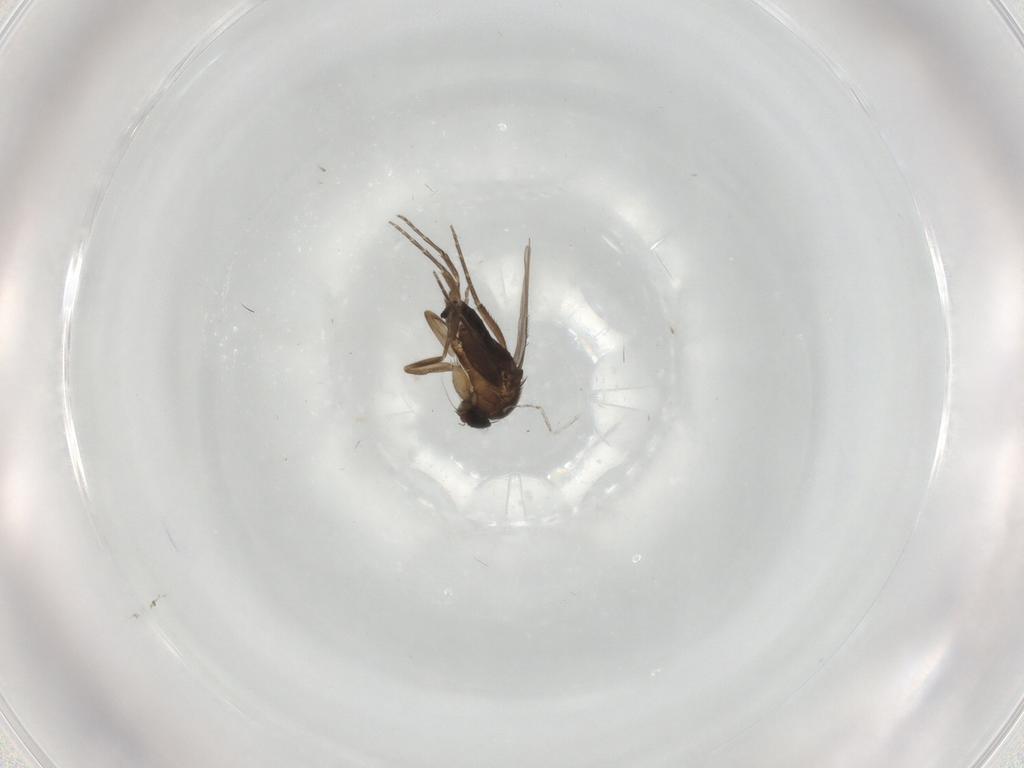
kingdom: Animalia
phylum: Arthropoda
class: Insecta
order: Diptera
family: Phoridae
